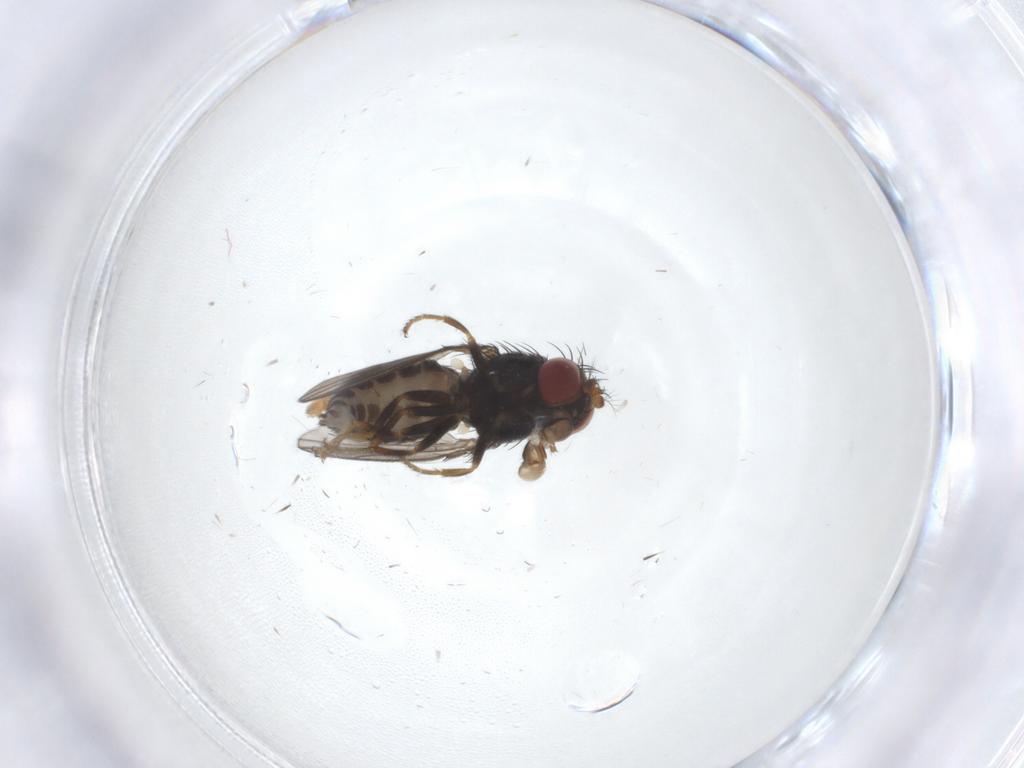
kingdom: Animalia
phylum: Arthropoda
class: Insecta
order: Diptera
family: Ephydridae
